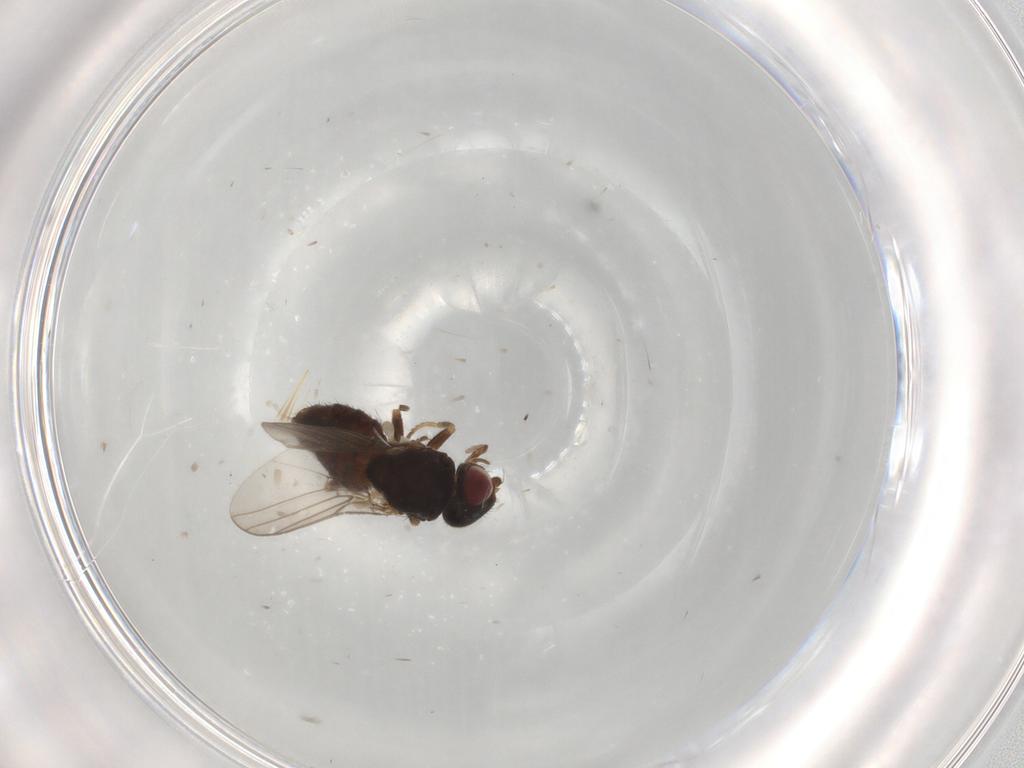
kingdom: Animalia
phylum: Arthropoda
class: Insecta
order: Diptera
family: Chloropidae
